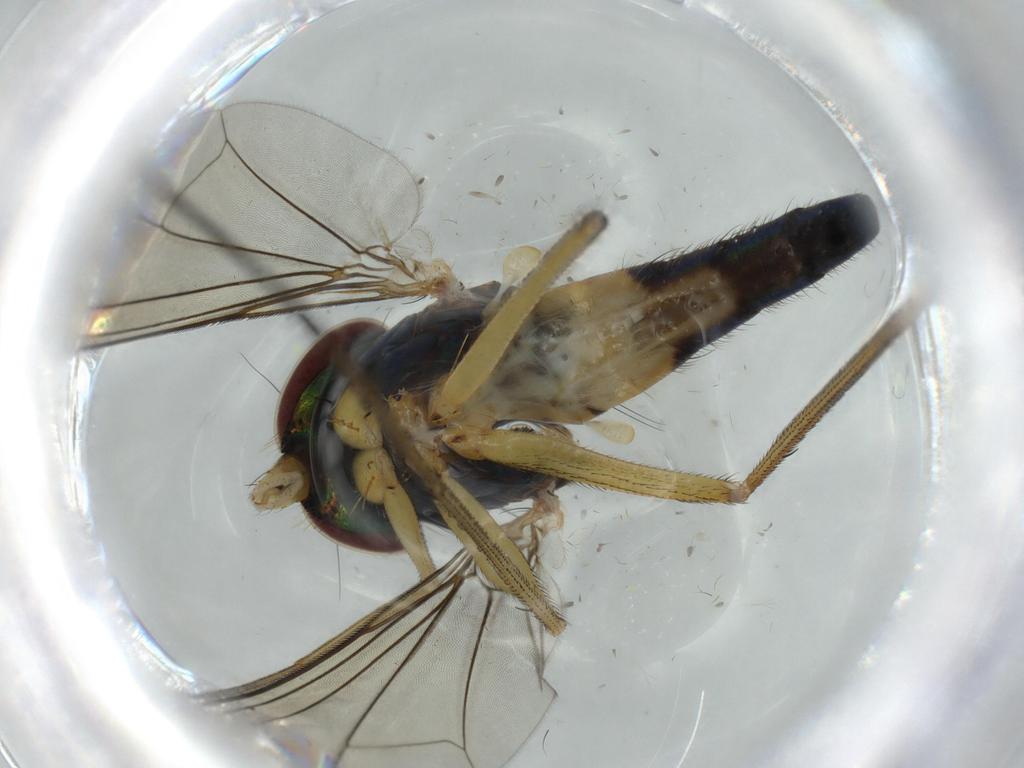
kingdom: Animalia
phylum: Arthropoda
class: Insecta
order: Diptera
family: Dolichopodidae
